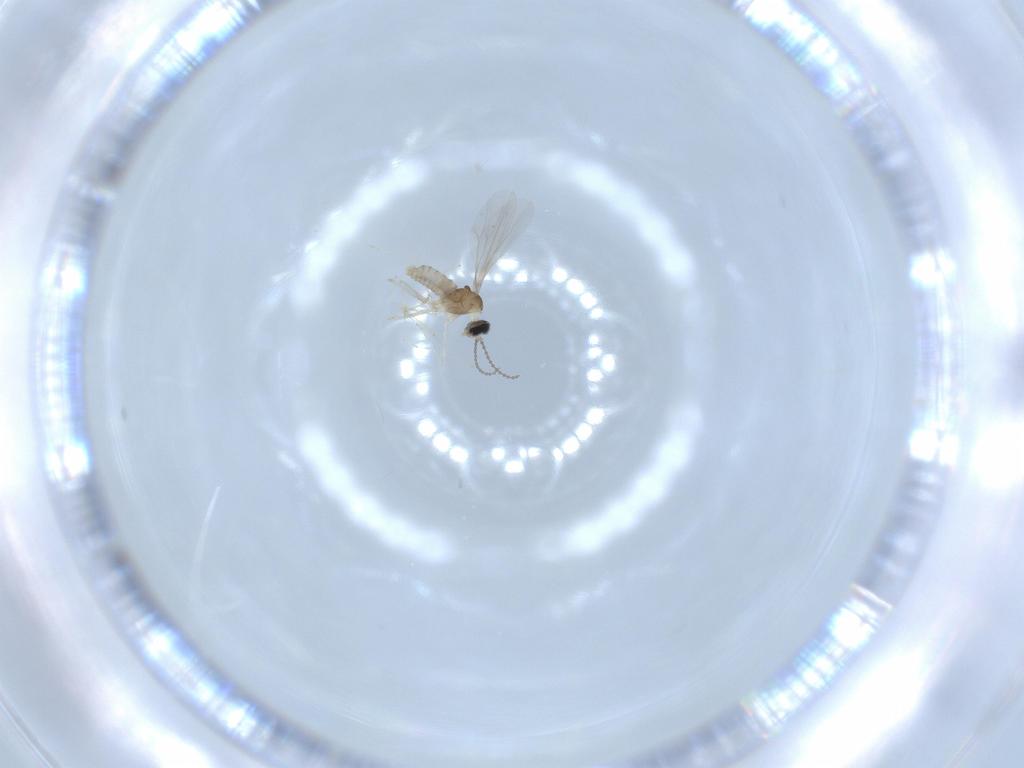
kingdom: Animalia
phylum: Arthropoda
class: Insecta
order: Diptera
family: Cecidomyiidae
